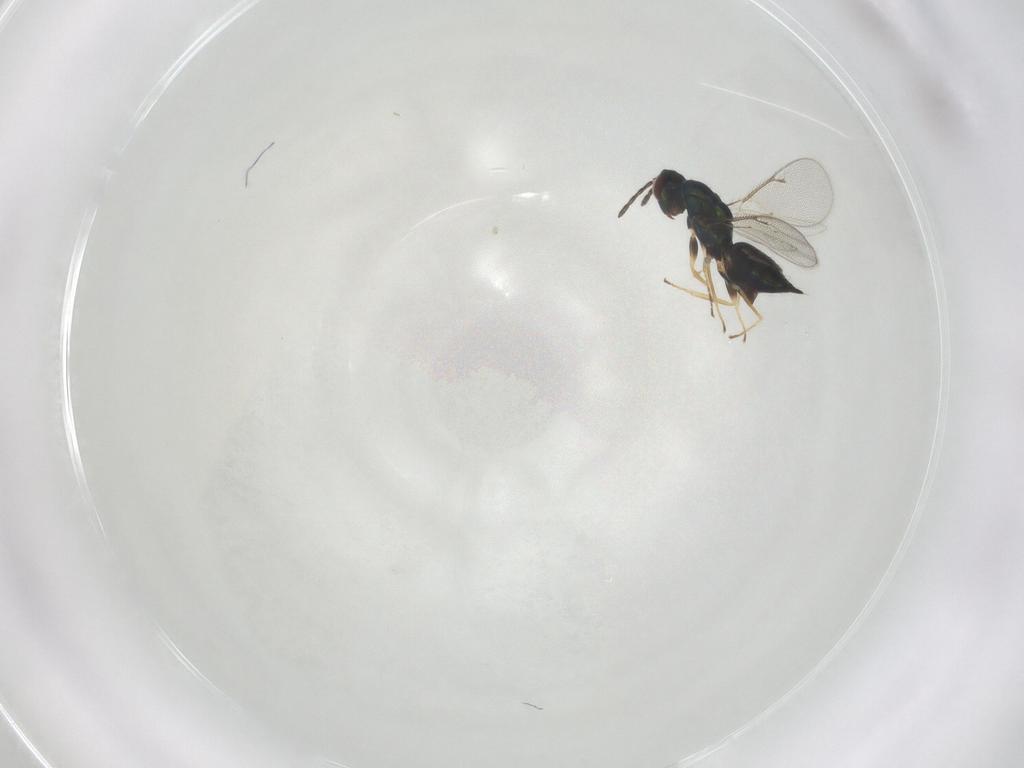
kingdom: Animalia
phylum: Arthropoda
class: Insecta
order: Hymenoptera
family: Eulophidae
